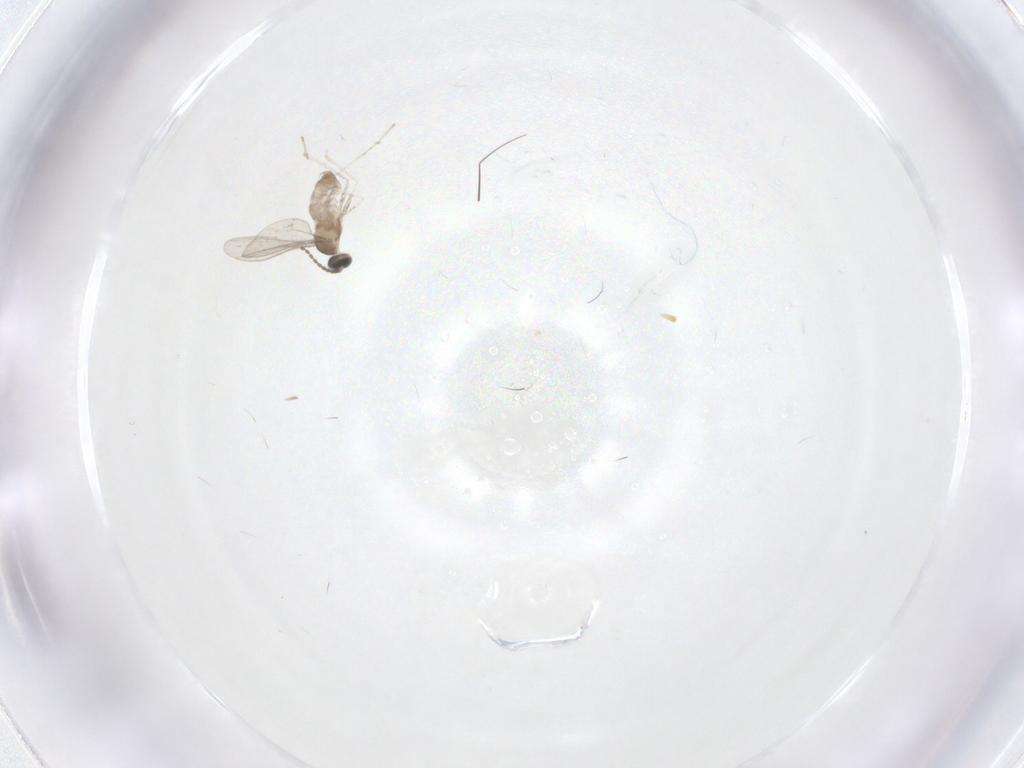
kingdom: Animalia
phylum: Arthropoda
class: Insecta
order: Diptera
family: Cecidomyiidae
